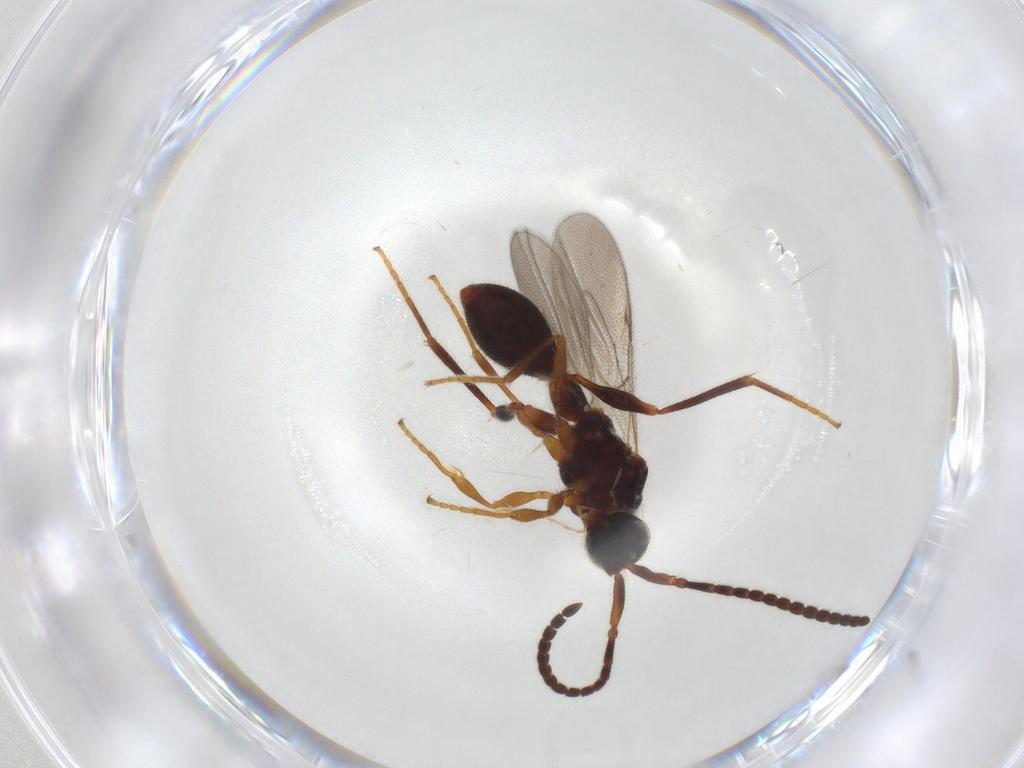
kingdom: Animalia
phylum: Arthropoda
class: Insecta
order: Hymenoptera
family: Diapriidae
